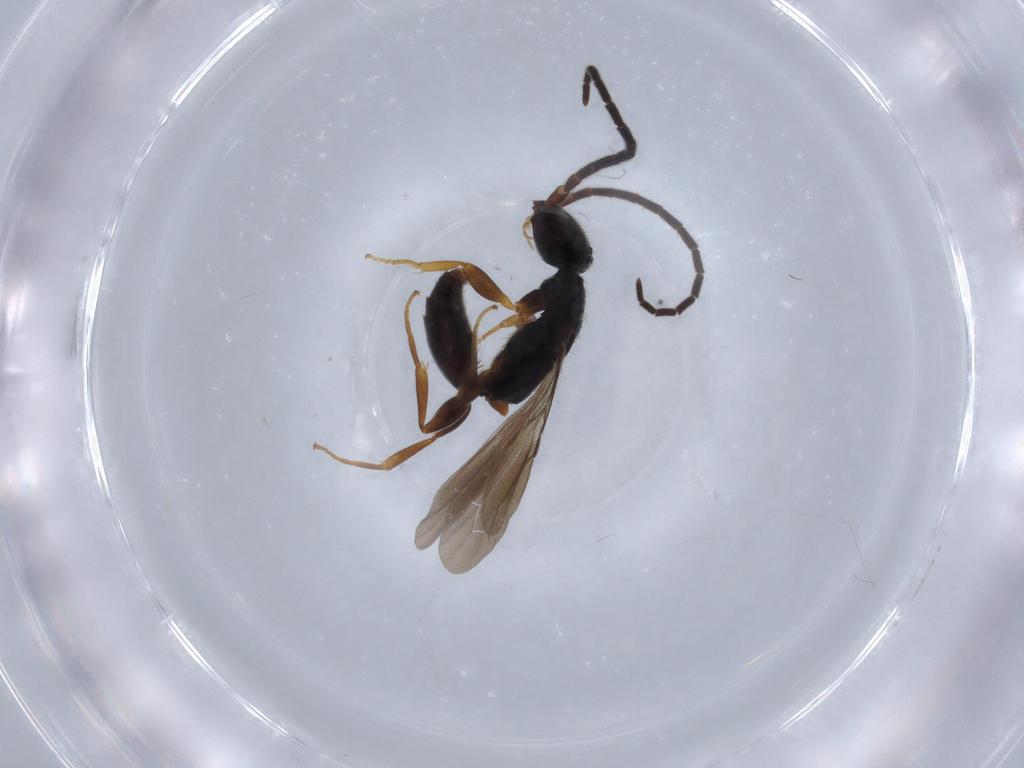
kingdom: Animalia
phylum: Arthropoda
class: Insecta
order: Hymenoptera
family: Bethylidae
